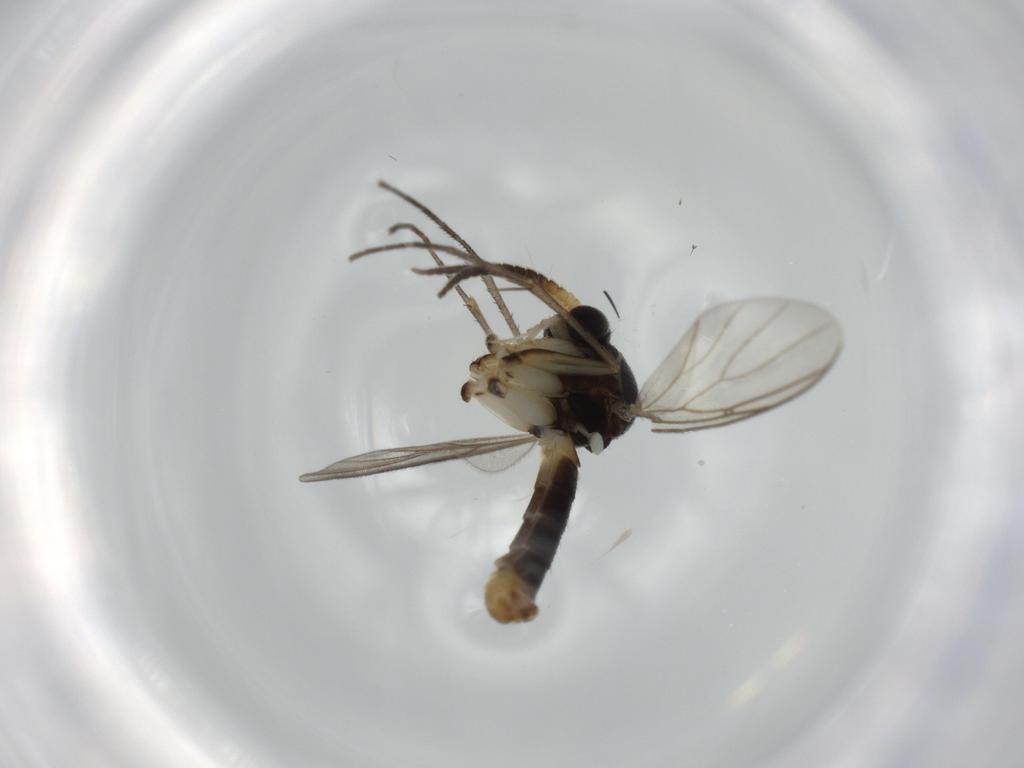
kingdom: Animalia
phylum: Arthropoda
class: Insecta
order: Diptera
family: Milichiidae
